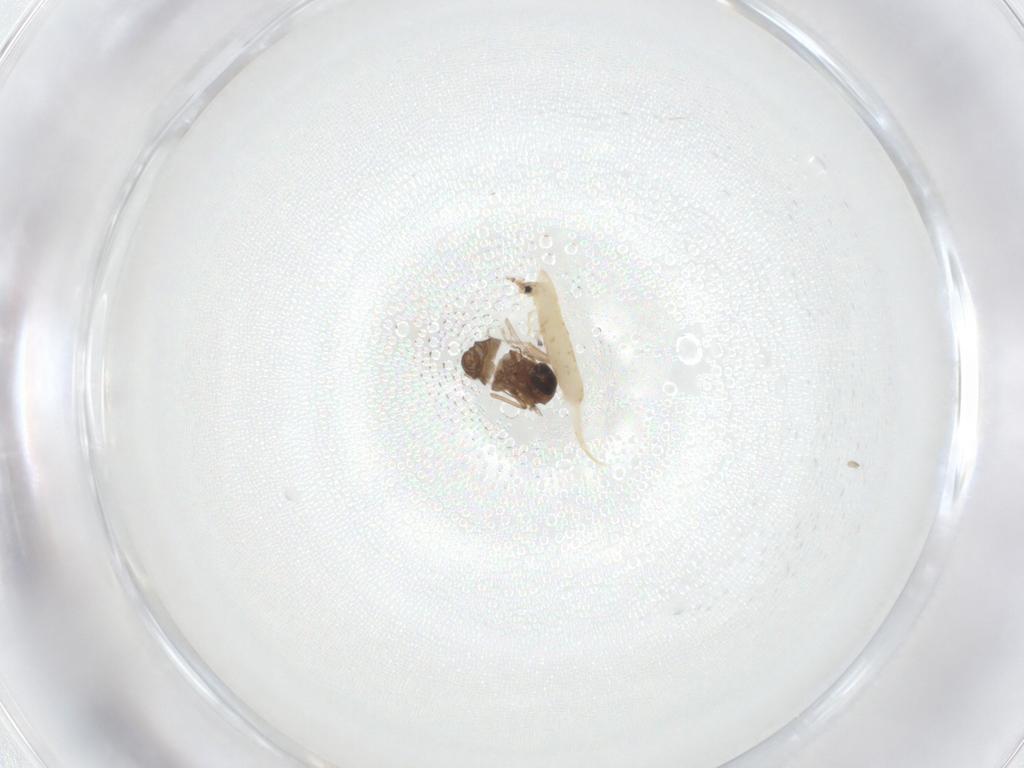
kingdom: Animalia
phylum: Arthropoda
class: Insecta
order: Diptera
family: Ceratopogonidae
